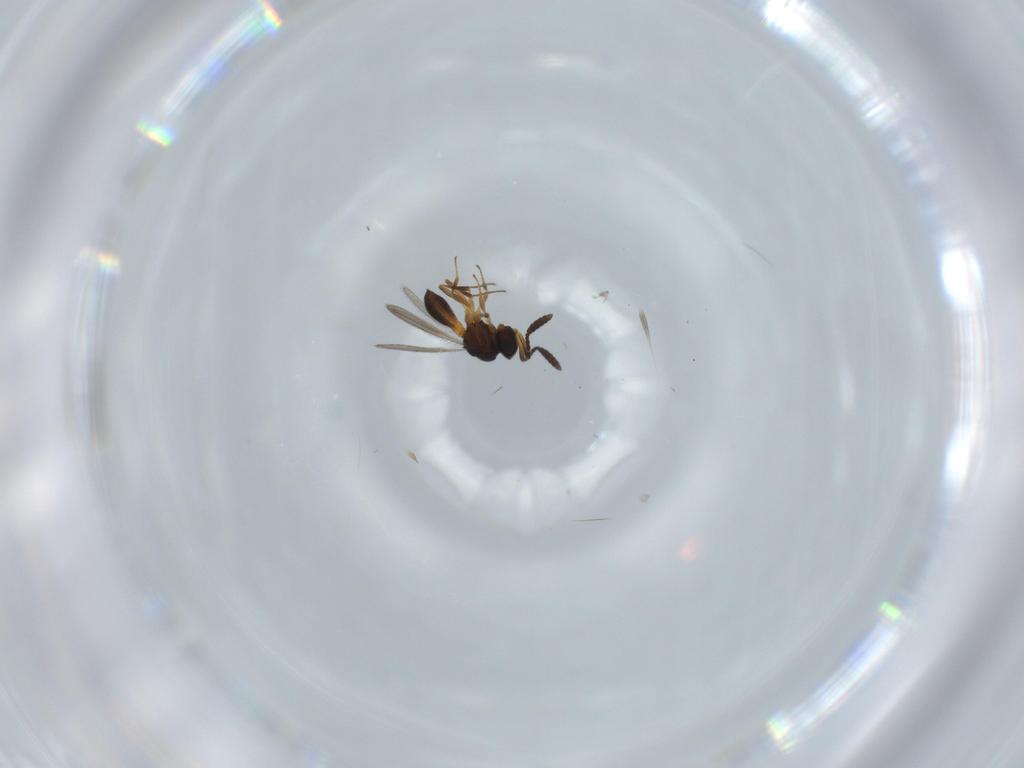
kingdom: Animalia
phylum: Arthropoda
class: Insecta
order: Hymenoptera
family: Scelionidae
